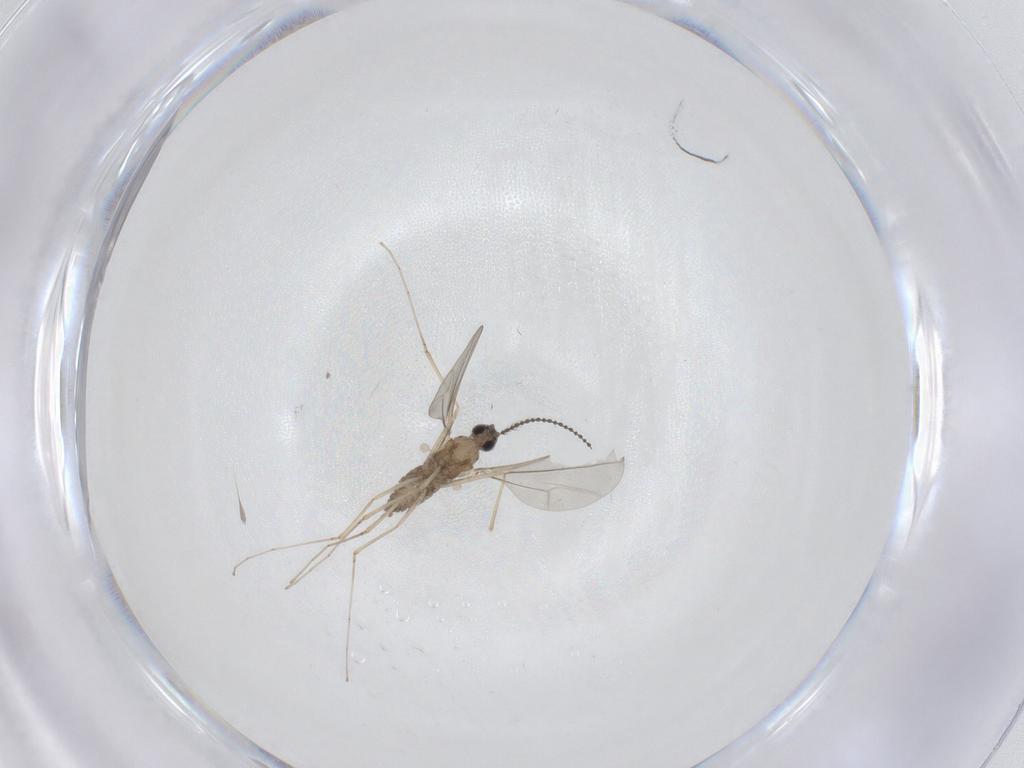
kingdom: Animalia
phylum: Arthropoda
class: Insecta
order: Diptera
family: Cecidomyiidae
